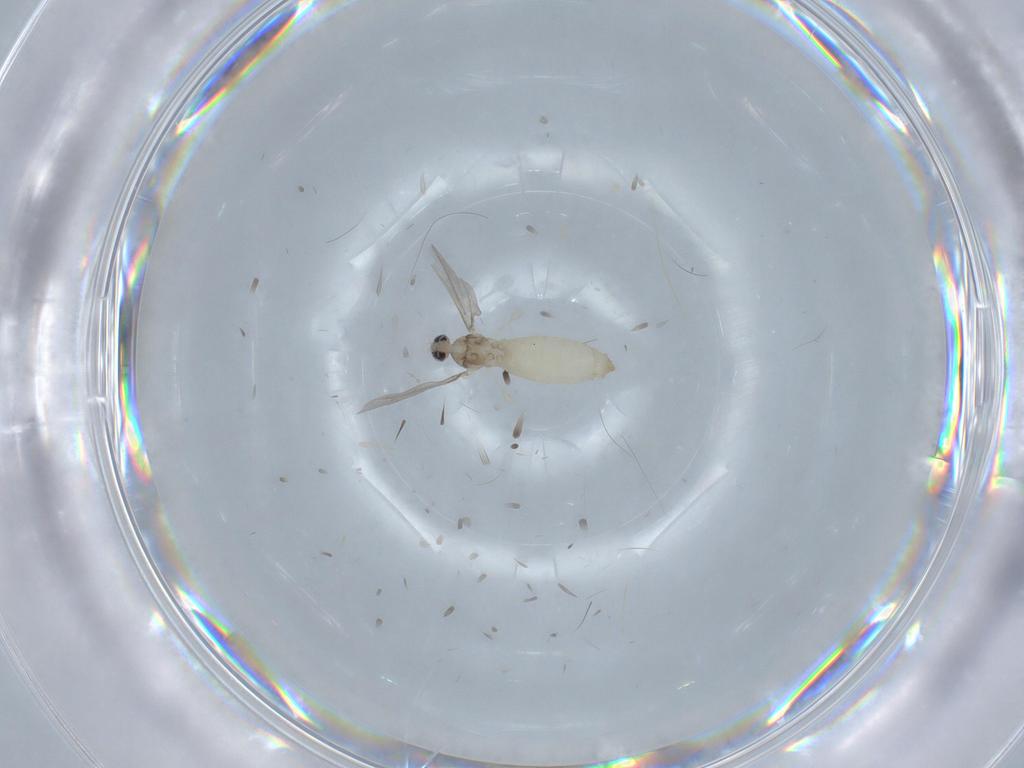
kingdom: Animalia
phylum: Arthropoda
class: Insecta
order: Diptera
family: Cecidomyiidae
